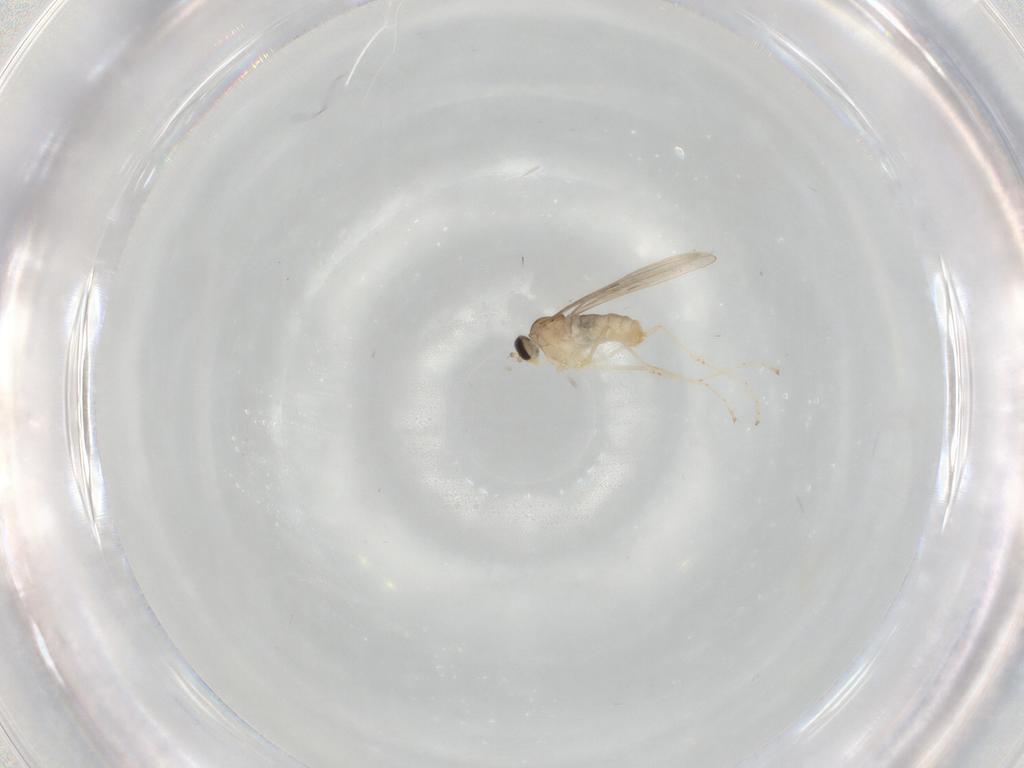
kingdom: Animalia
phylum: Arthropoda
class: Insecta
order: Diptera
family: Cecidomyiidae
